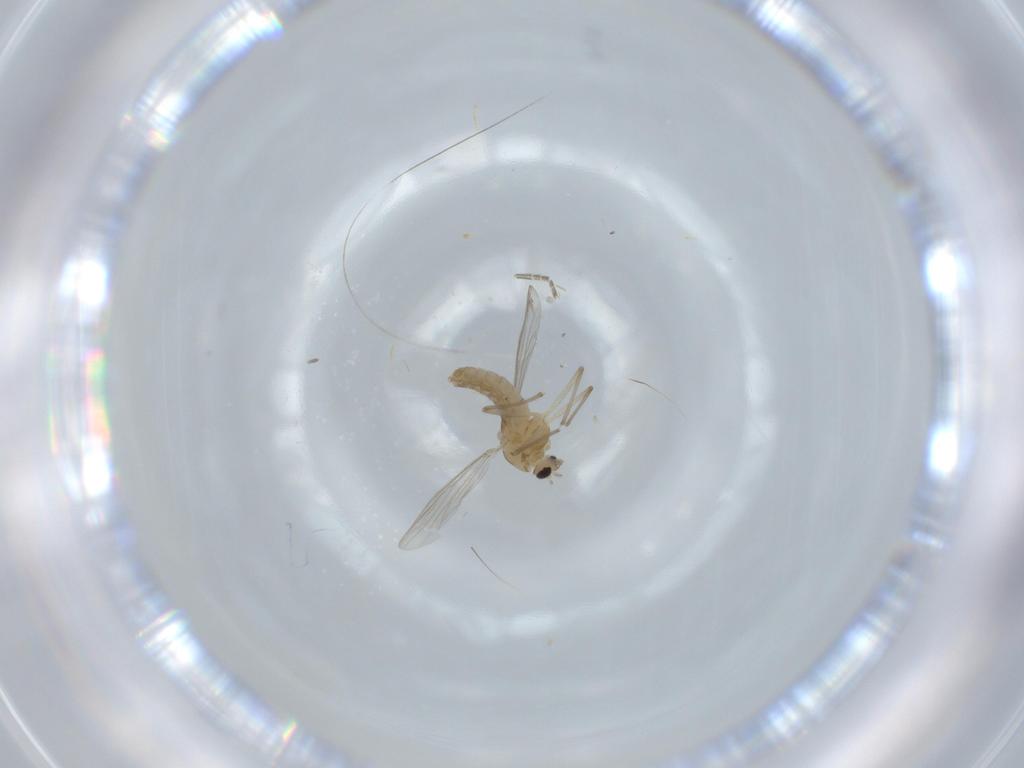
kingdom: Animalia
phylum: Arthropoda
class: Insecta
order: Diptera
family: Chironomidae
